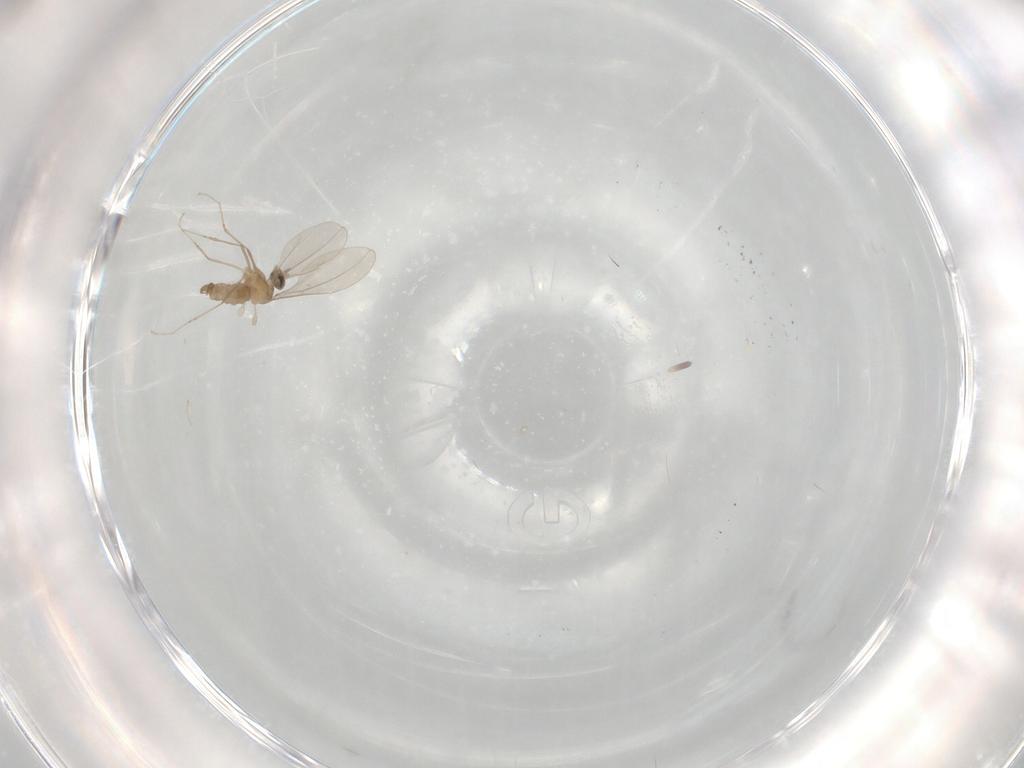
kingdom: Animalia
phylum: Arthropoda
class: Insecta
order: Diptera
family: Cecidomyiidae
